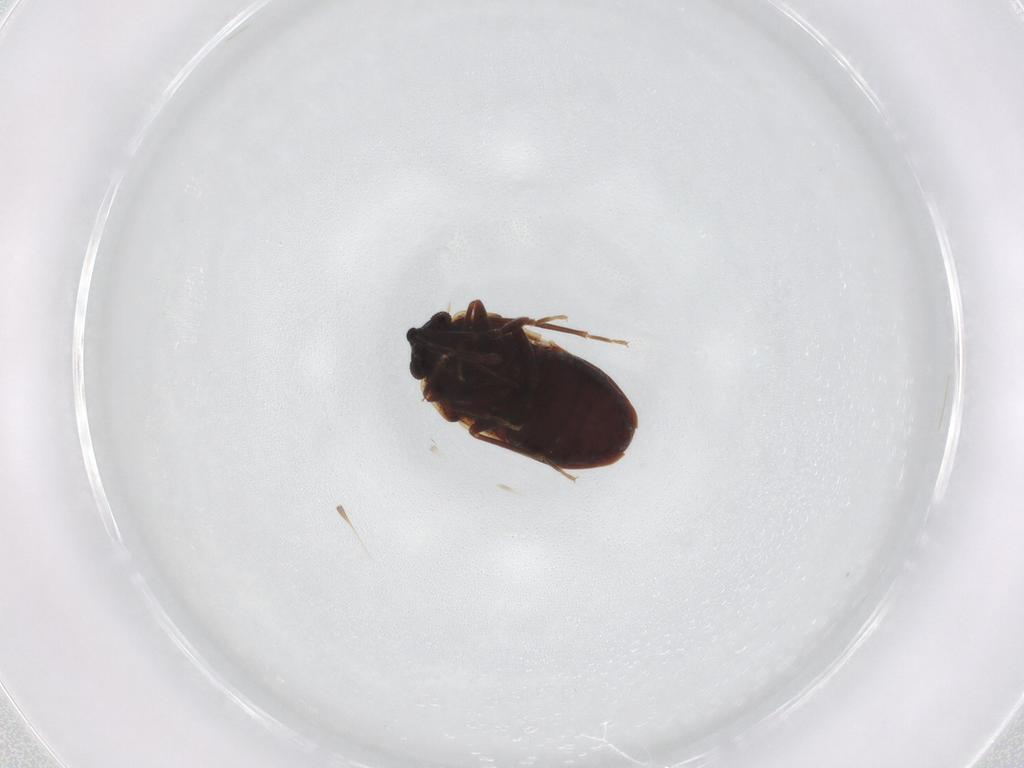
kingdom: Animalia
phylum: Arthropoda
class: Insecta
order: Hemiptera
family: Rhyparochromidae
